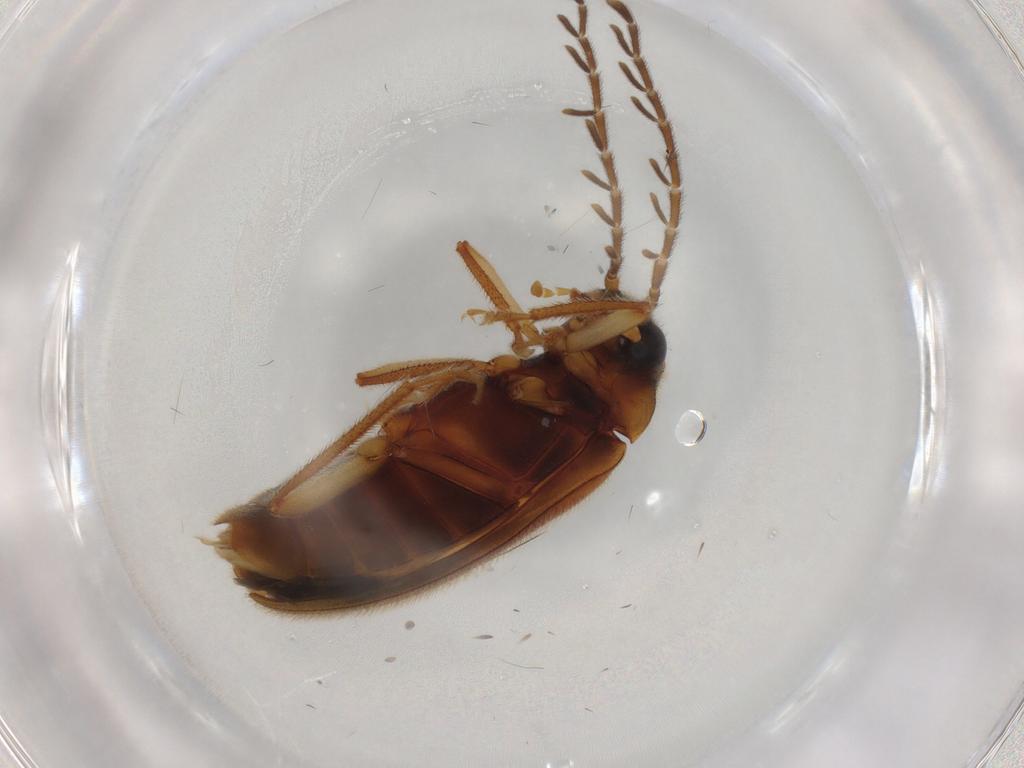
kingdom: Animalia
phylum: Arthropoda
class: Insecta
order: Coleoptera
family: Ptilodactylidae
